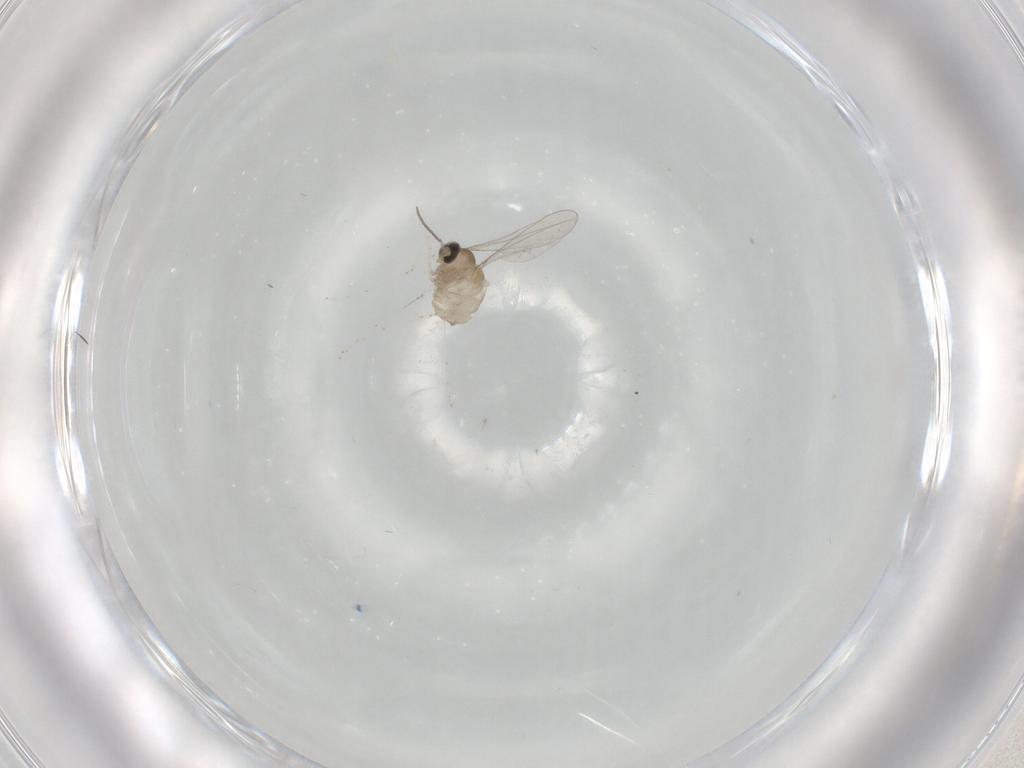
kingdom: Animalia
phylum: Arthropoda
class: Insecta
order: Diptera
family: Cecidomyiidae
